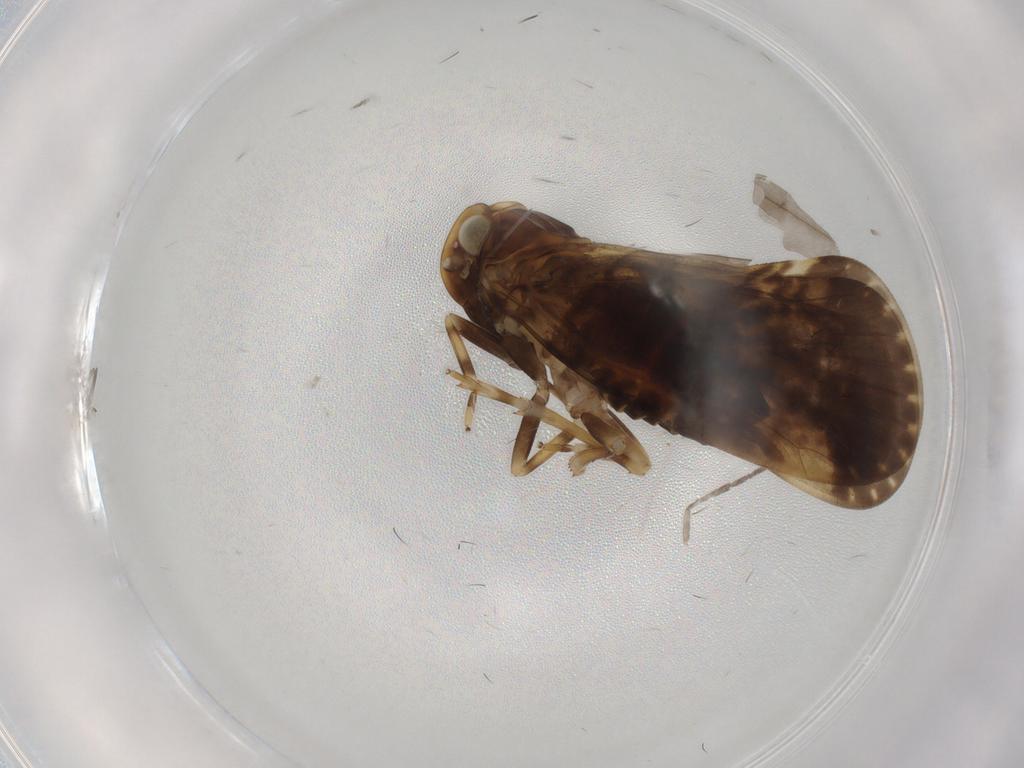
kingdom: Animalia
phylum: Arthropoda
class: Insecta
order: Hemiptera
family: Cixiidae
